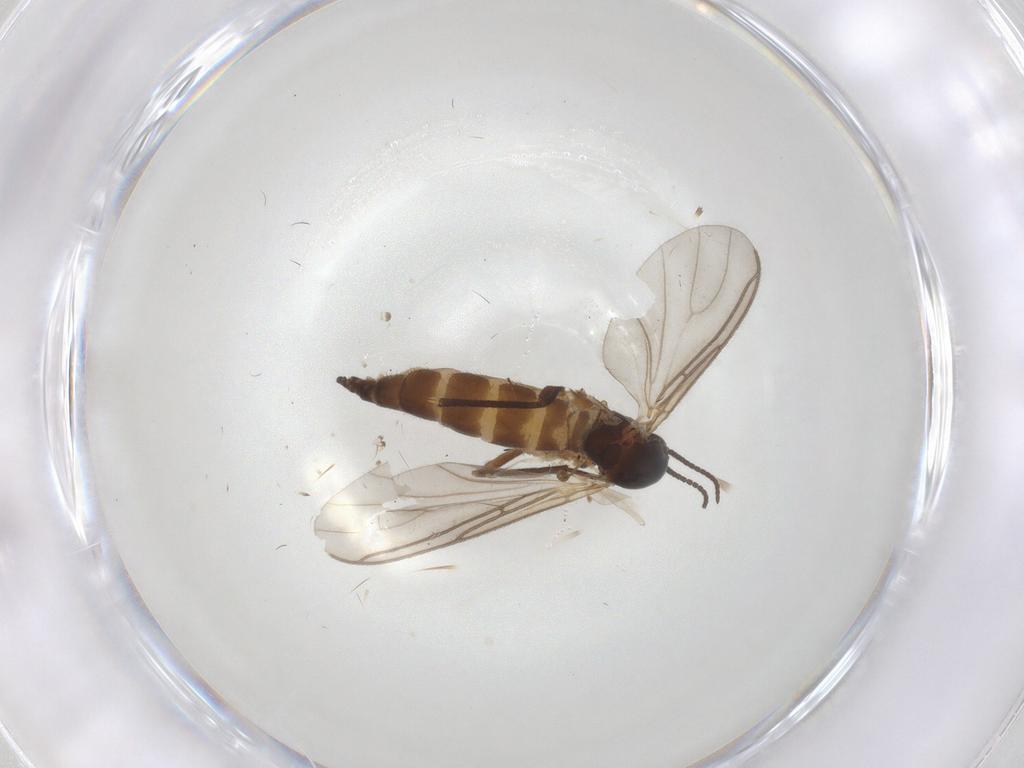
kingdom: Animalia
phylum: Arthropoda
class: Insecta
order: Diptera
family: Sciaridae
